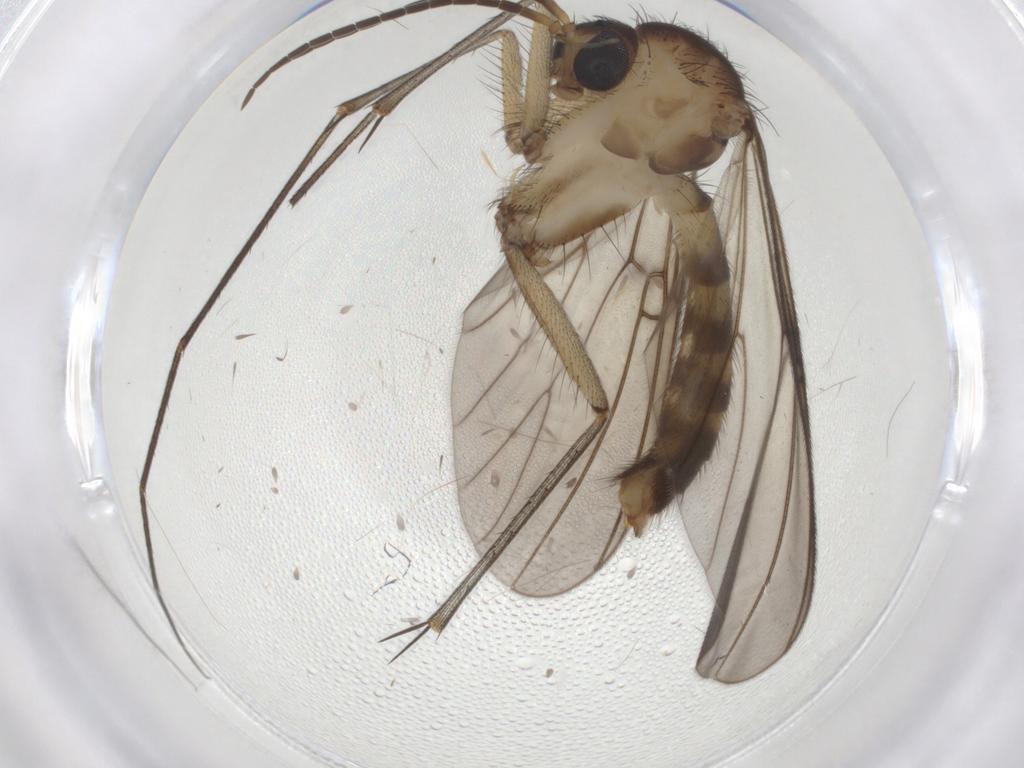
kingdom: Animalia
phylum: Arthropoda
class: Insecta
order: Diptera
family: Mycetophilidae
